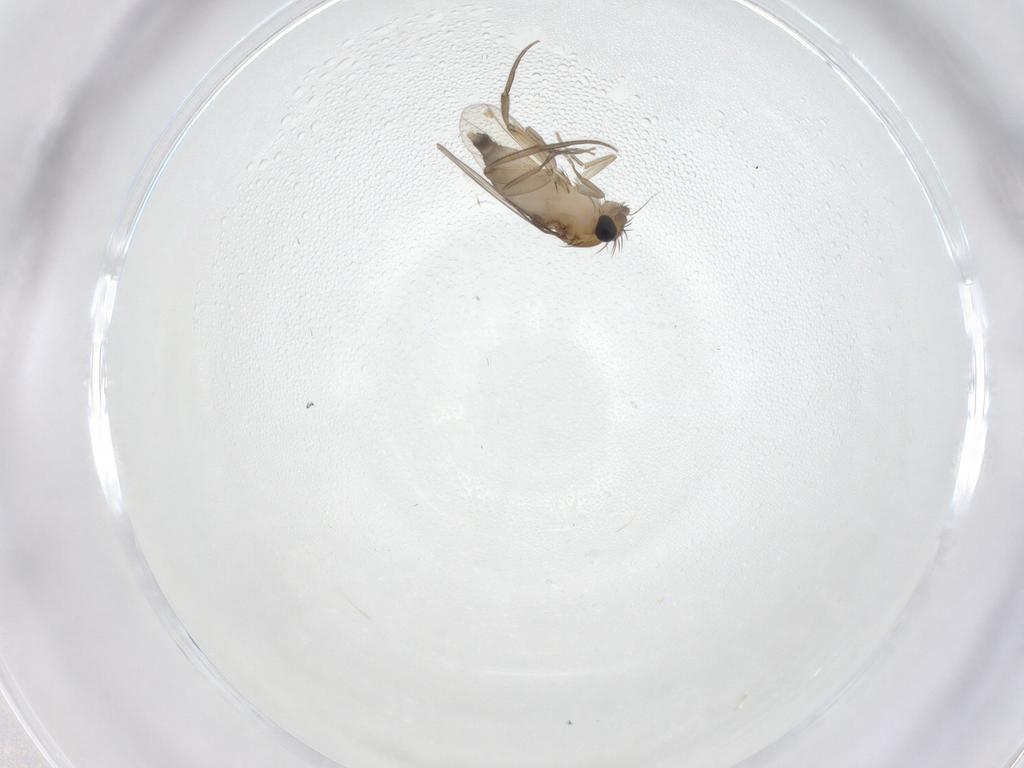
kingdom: Animalia
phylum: Arthropoda
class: Insecta
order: Diptera
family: Phoridae
